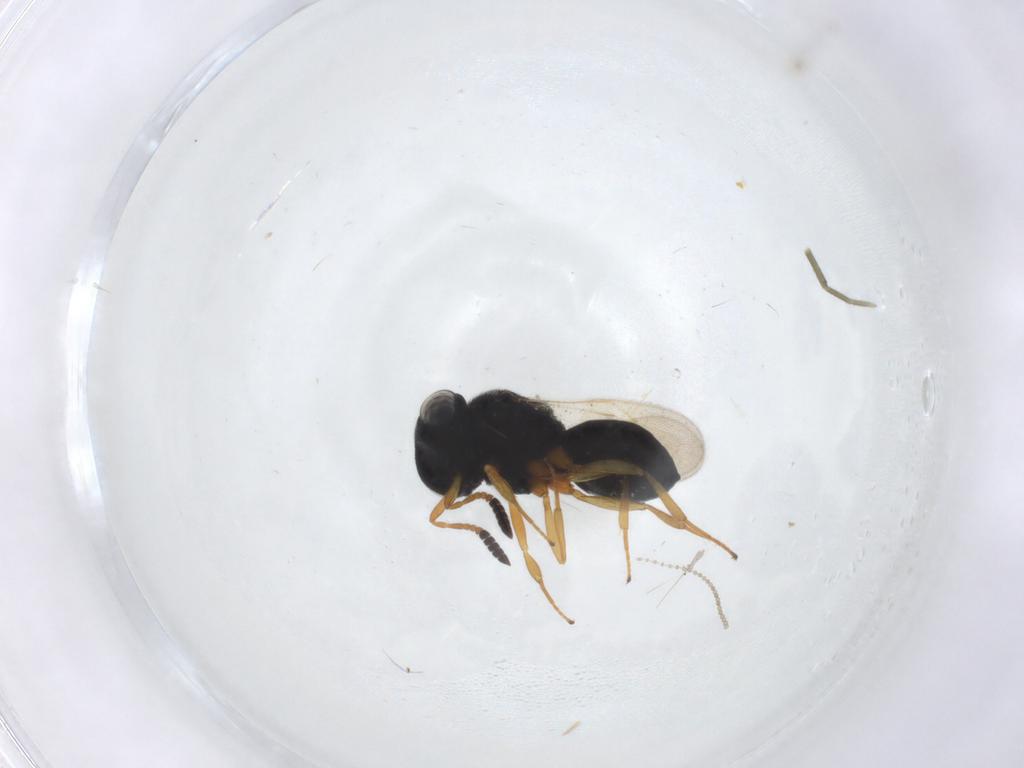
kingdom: Animalia
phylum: Arthropoda
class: Insecta
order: Hymenoptera
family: Scelionidae
